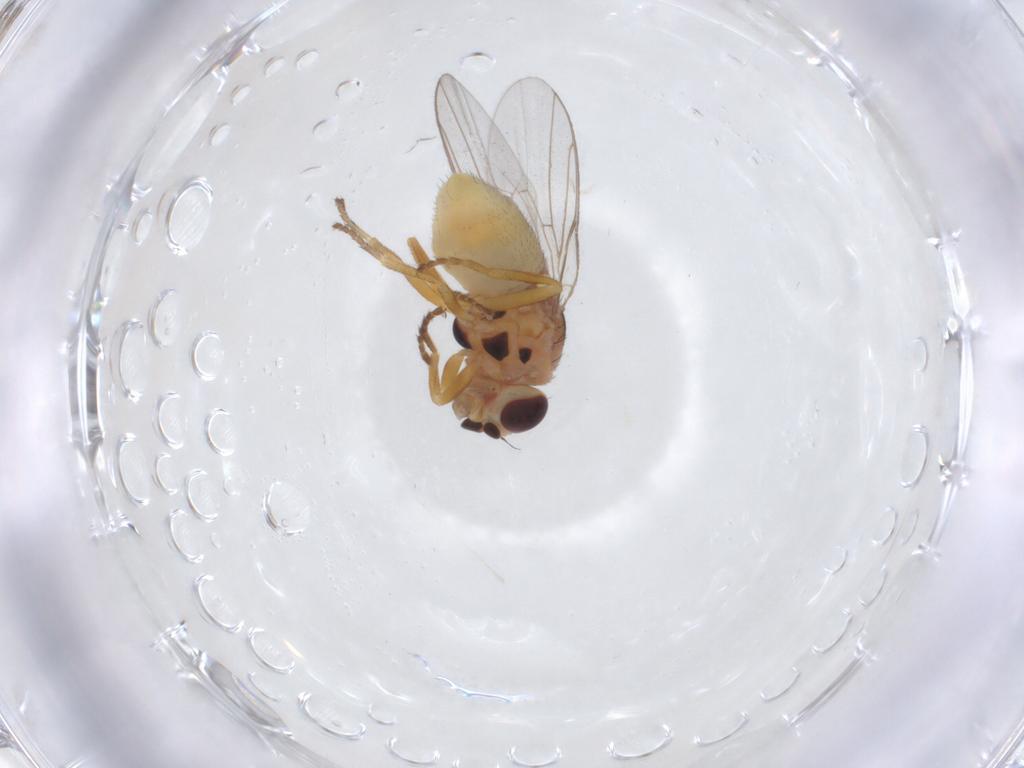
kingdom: Animalia
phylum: Arthropoda
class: Insecta
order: Diptera
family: Chloropidae
